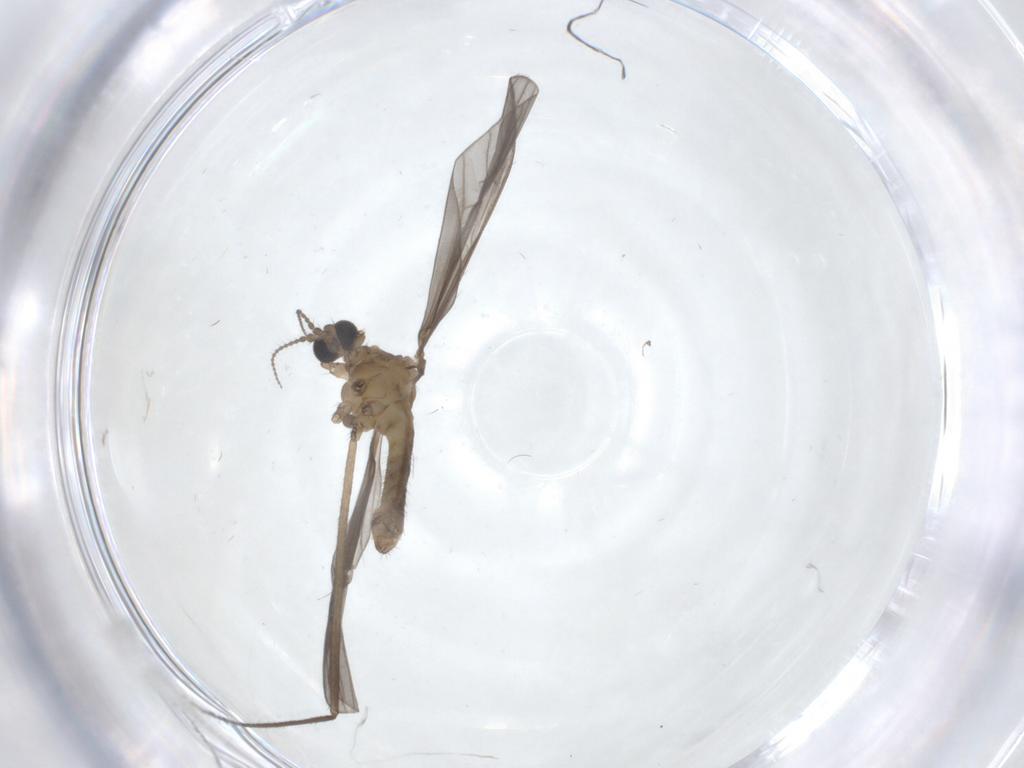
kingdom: Animalia
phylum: Arthropoda
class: Insecta
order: Diptera
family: Limoniidae
